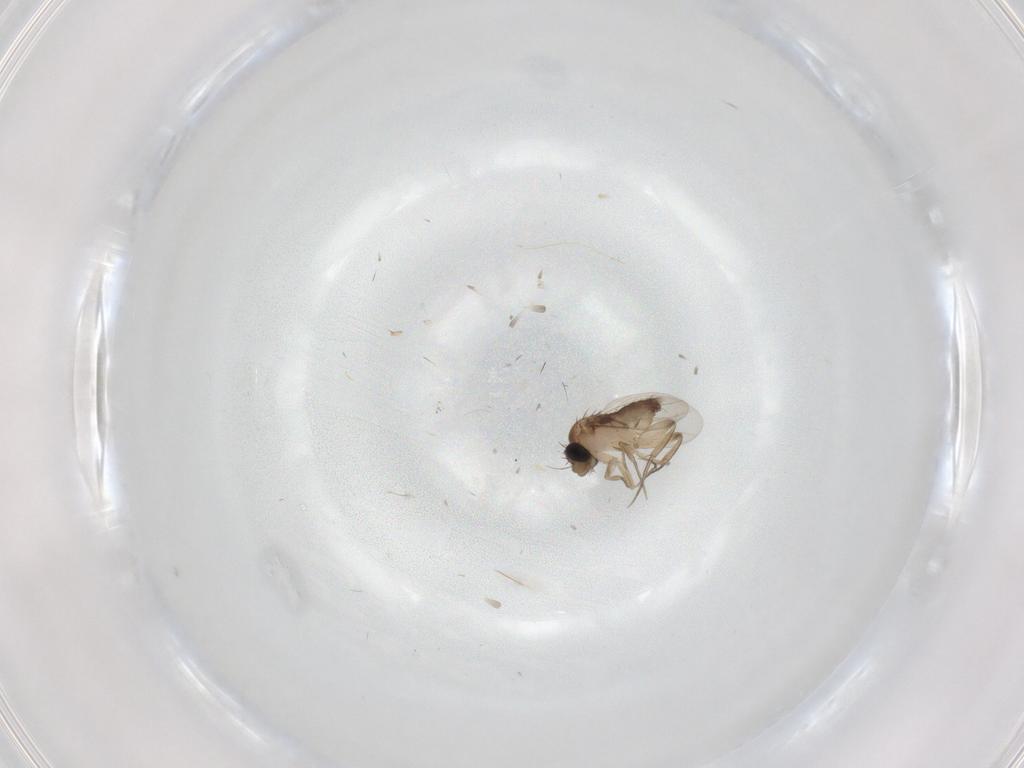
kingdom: Animalia
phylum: Arthropoda
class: Insecta
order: Diptera
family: Phoridae
